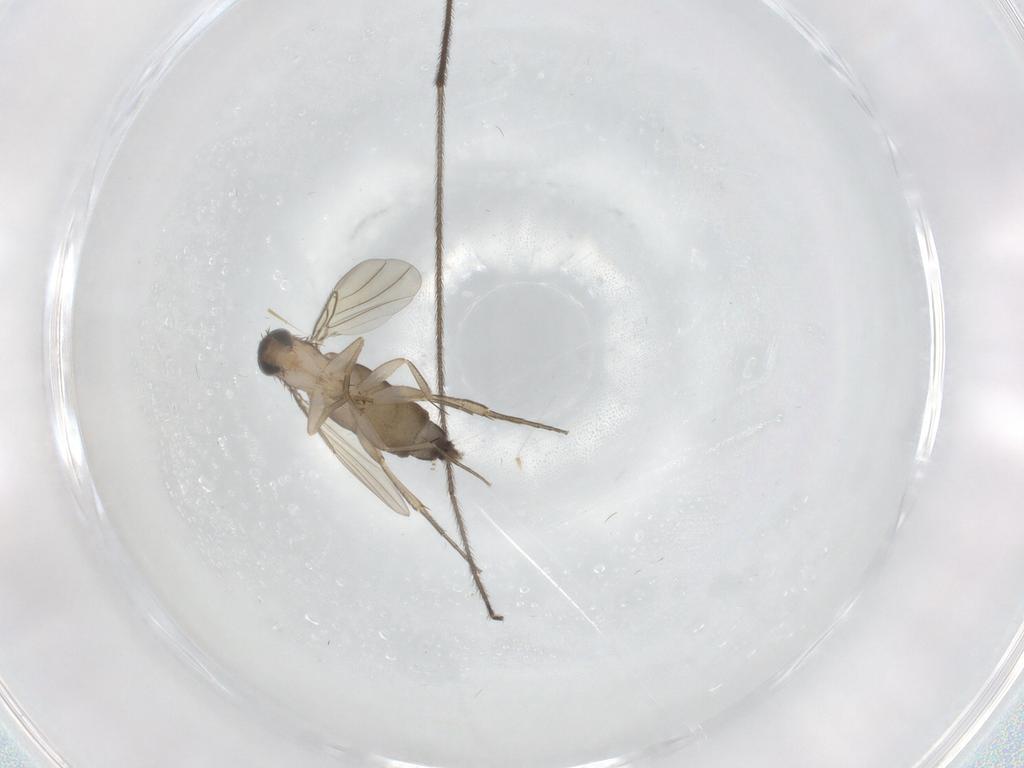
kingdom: Animalia
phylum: Arthropoda
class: Insecta
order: Diptera
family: Phoridae
